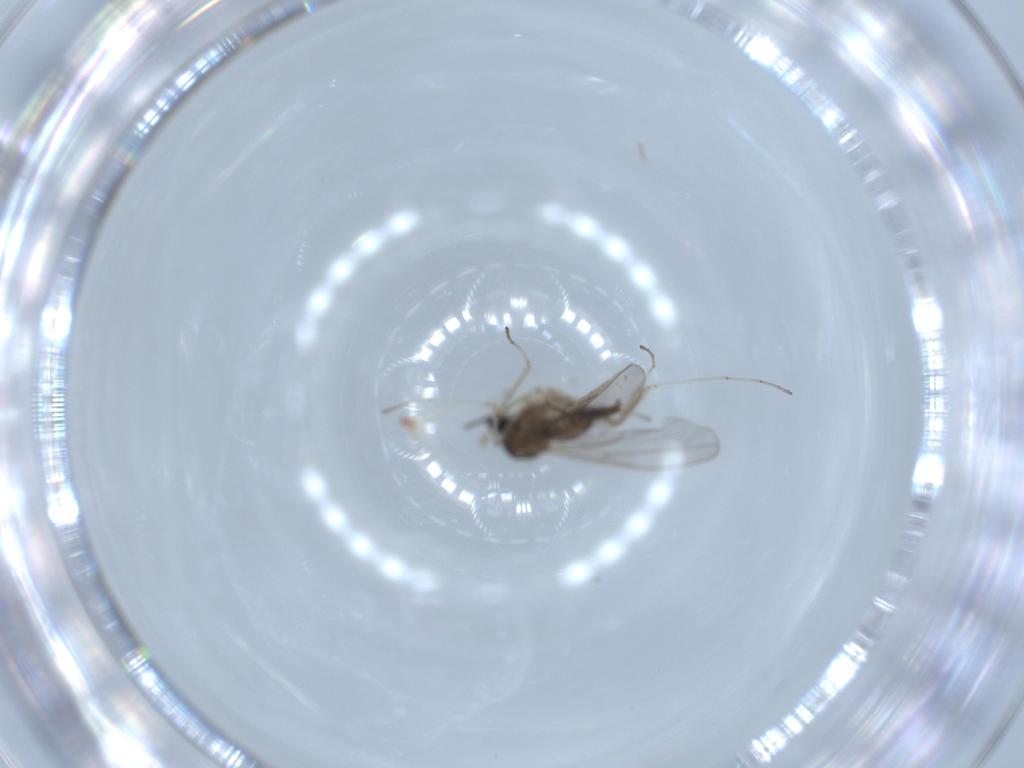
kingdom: Animalia
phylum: Arthropoda
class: Insecta
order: Diptera
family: Cecidomyiidae
